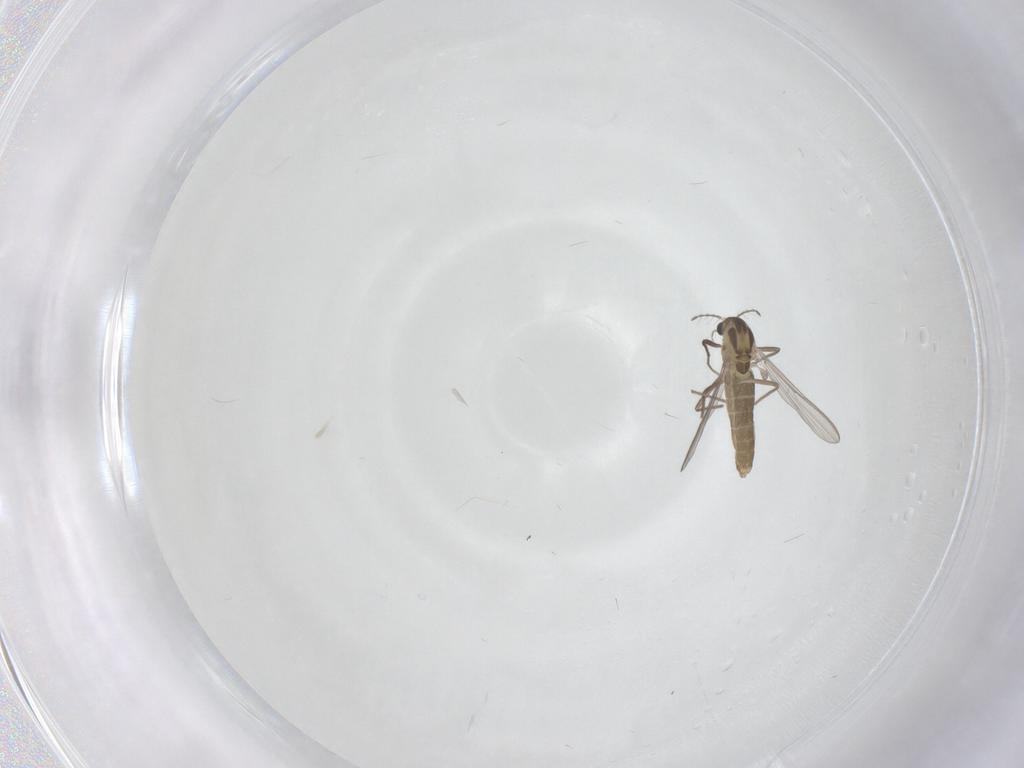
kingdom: Animalia
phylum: Arthropoda
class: Insecta
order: Diptera
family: Chironomidae
